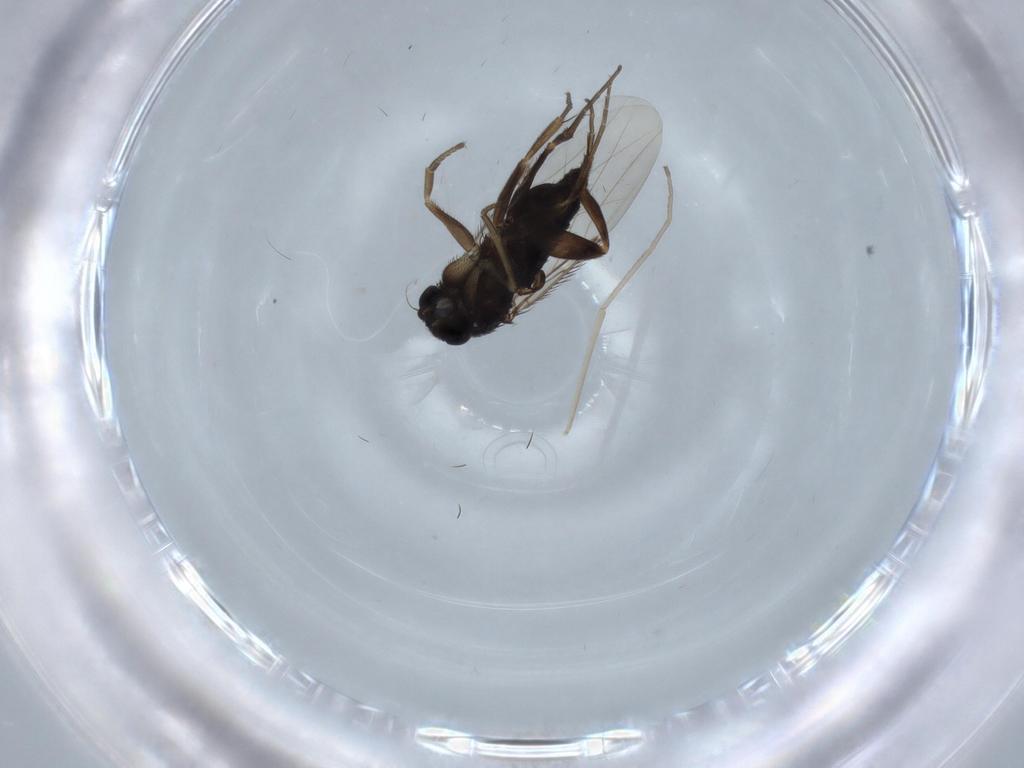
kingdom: Animalia
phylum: Arthropoda
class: Insecta
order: Diptera
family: Cecidomyiidae
